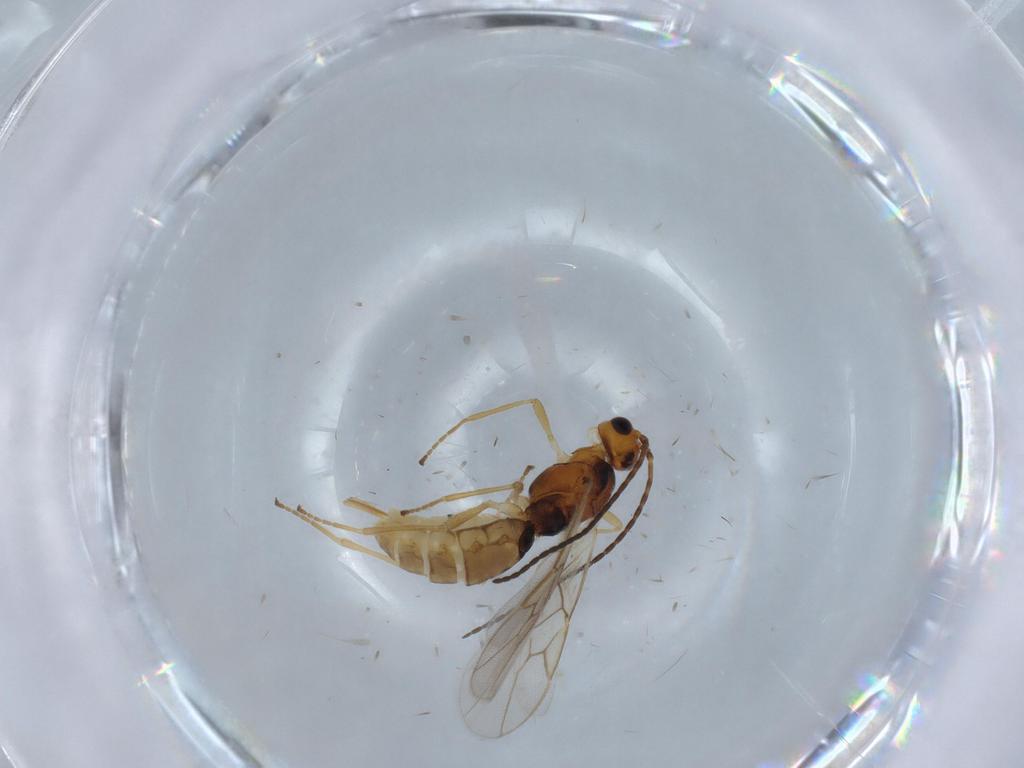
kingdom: Animalia
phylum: Arthropoda
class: Insecta
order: Hymenoptera
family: Braconidae
